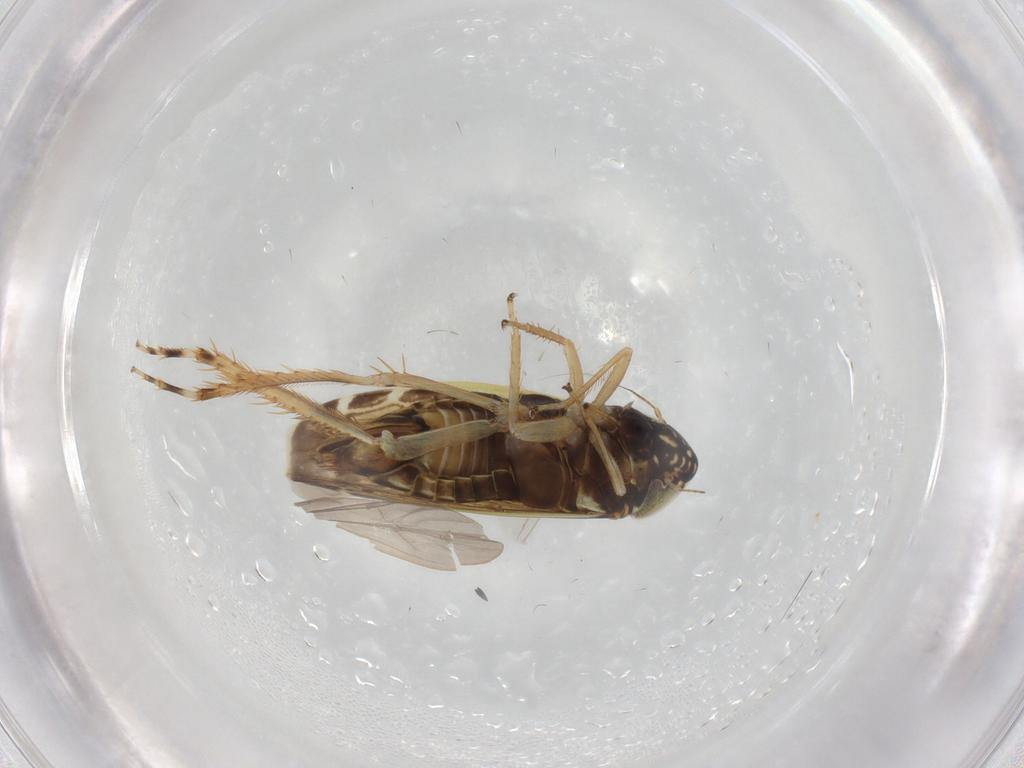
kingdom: Animalia
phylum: Arthropoda
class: Insecta
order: Hemiptera
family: Cicadellidae
